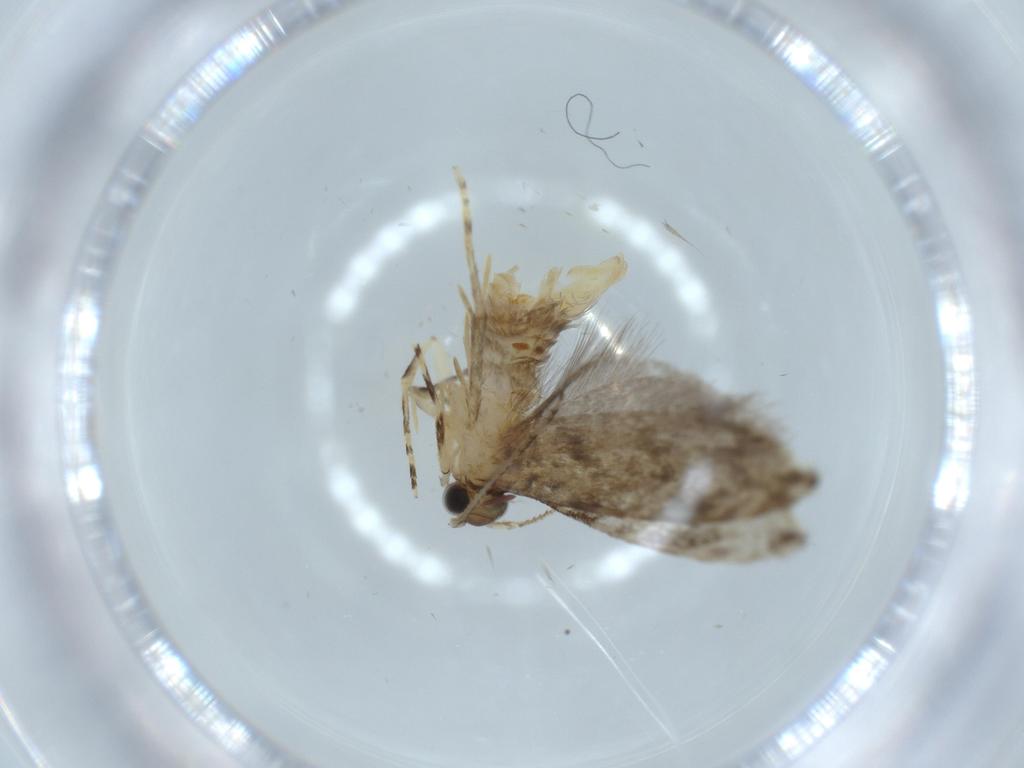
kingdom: Animalia
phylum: Arthropoda
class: Insecta
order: Lepidoptera
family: Tineidae
